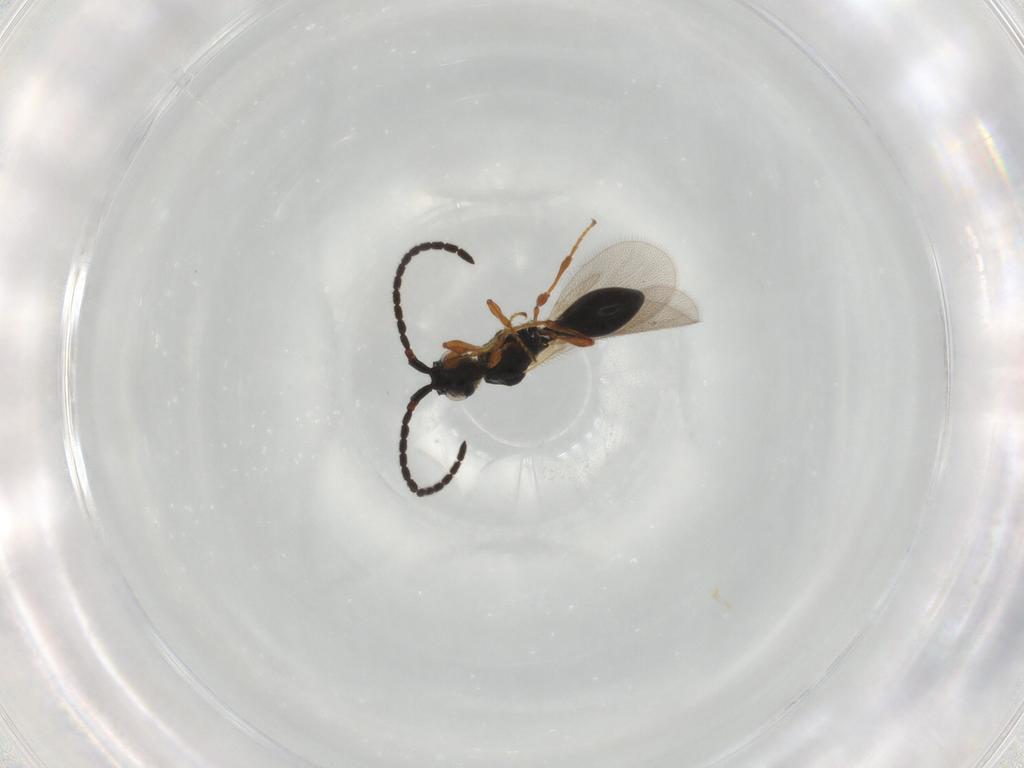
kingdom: Animalia
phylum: Arthropoda
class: Insecta
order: Hymenoptera
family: Diapriidae
